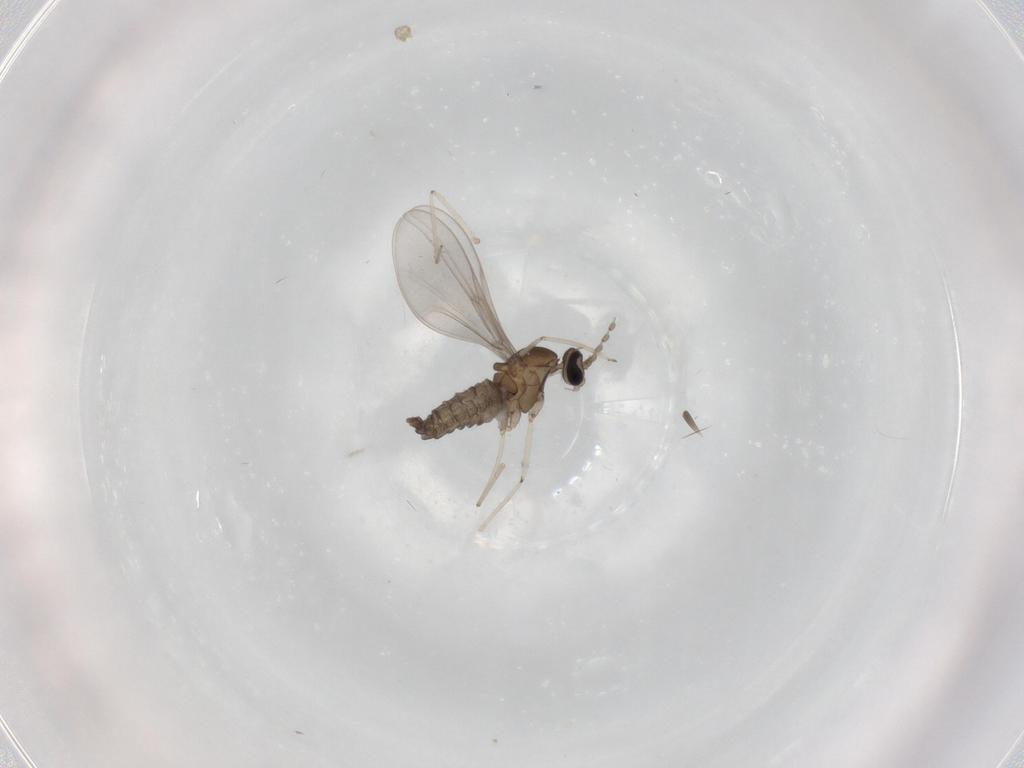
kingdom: Animalia
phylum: Arthropoda
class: Insecta
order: Diptera
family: Cecidomyiidae
